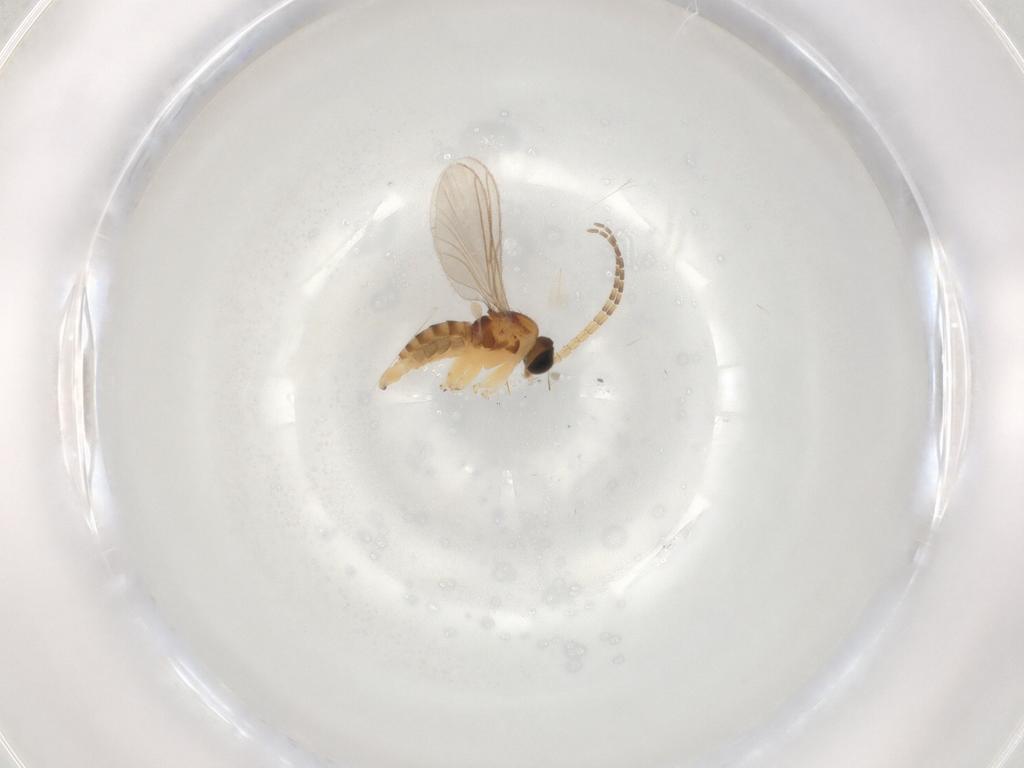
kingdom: Animalia
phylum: Arthropoda
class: Insecta
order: Diptera
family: Sciaridae
